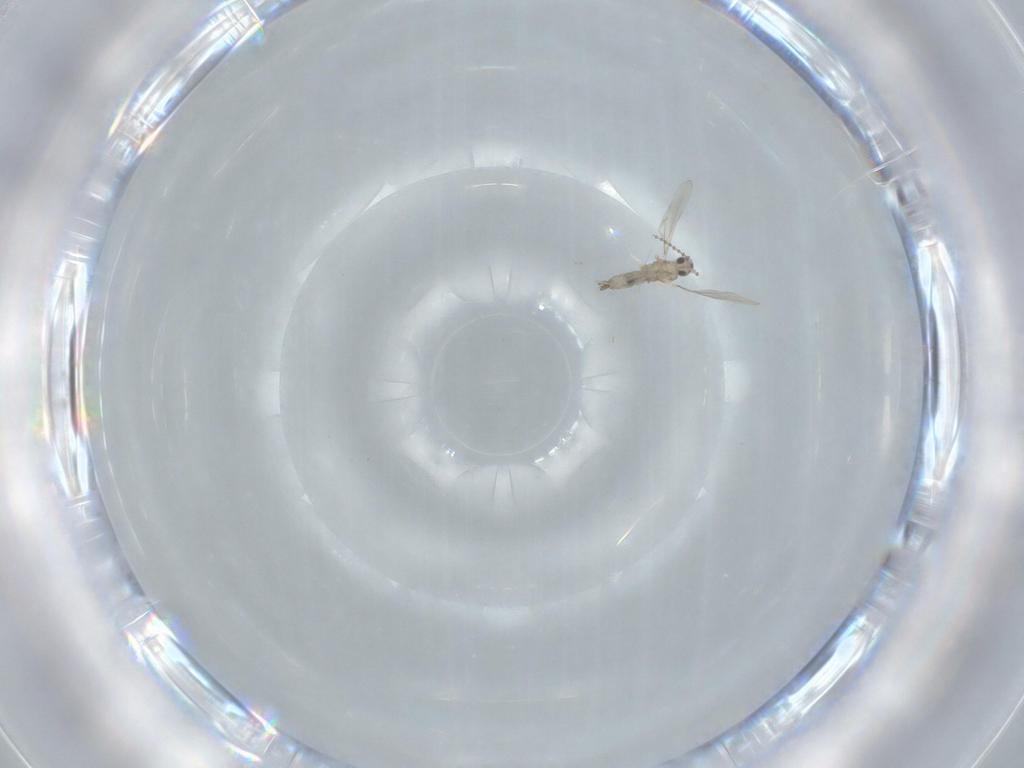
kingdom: Animalia
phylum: Arthropoda
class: Insecta
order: Diptera
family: Cecidomyiidae
